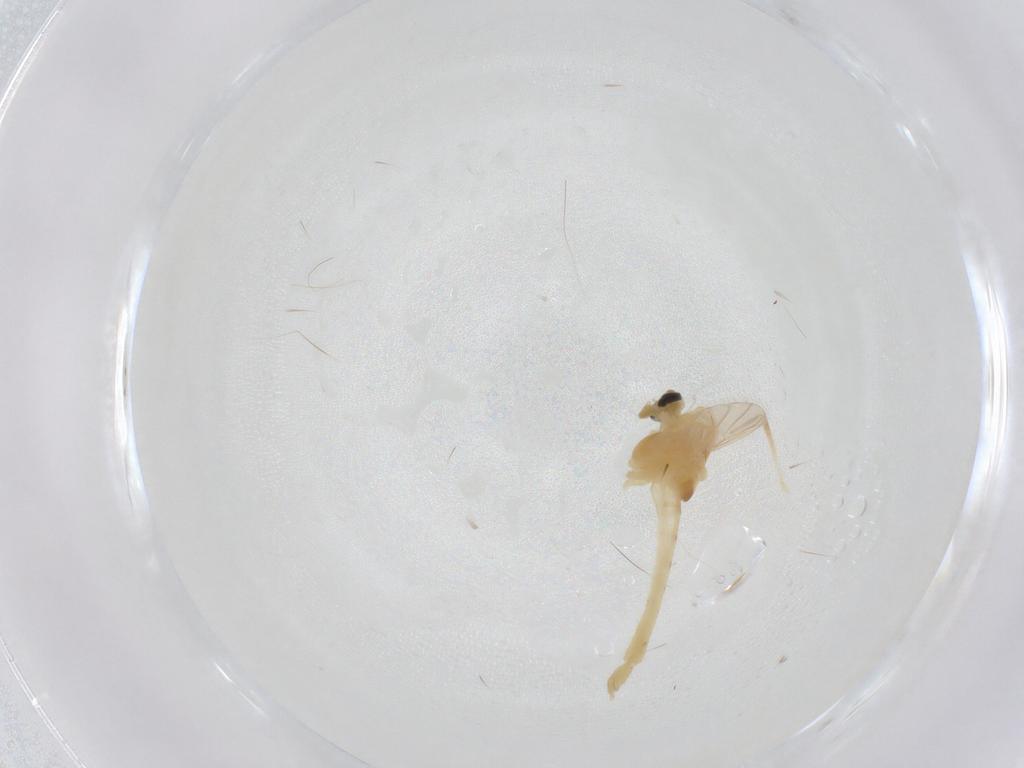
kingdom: Animalia
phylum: Arthropoda
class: Insecta
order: Diptera
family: Chironomidae
